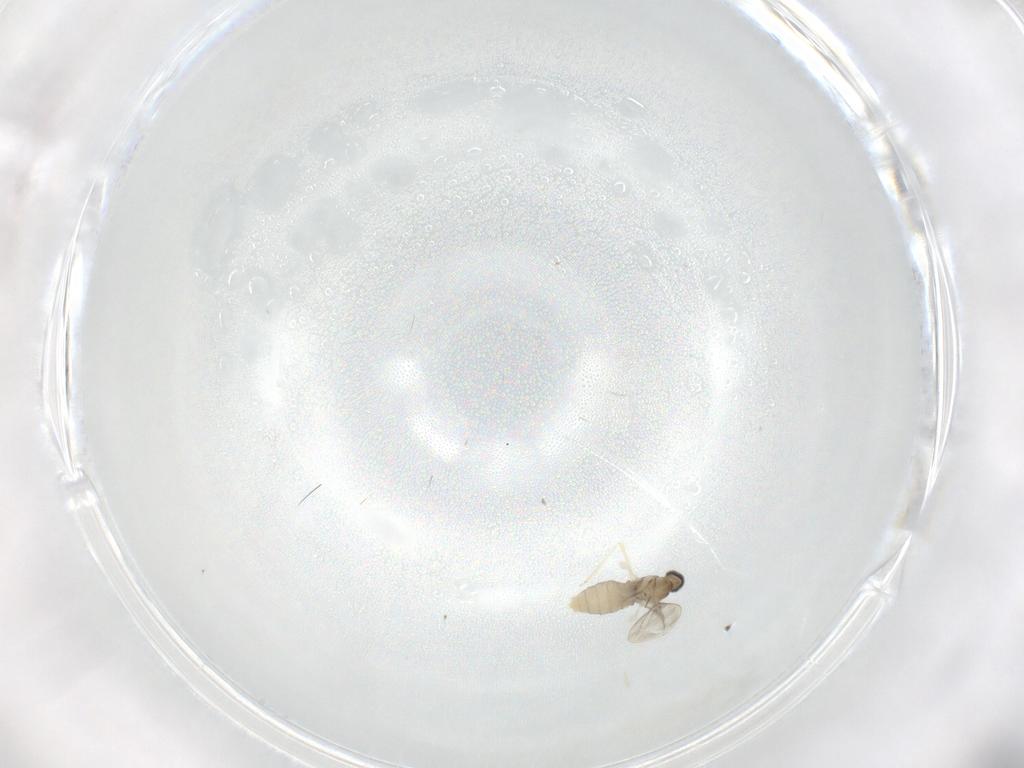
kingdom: Animalia
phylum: Arthropoda
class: Insecta
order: Diptera
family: Cecidomyiidae
